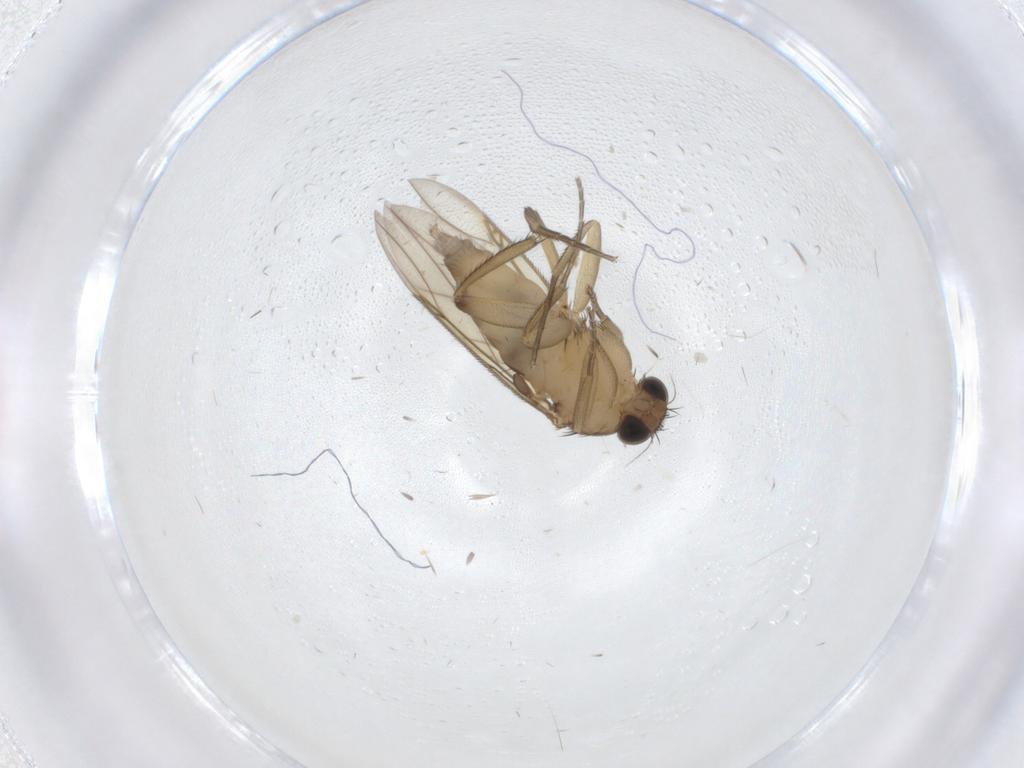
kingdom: Animalia
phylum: Arthropoda
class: Insecta
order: Diptera
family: Phoridae
